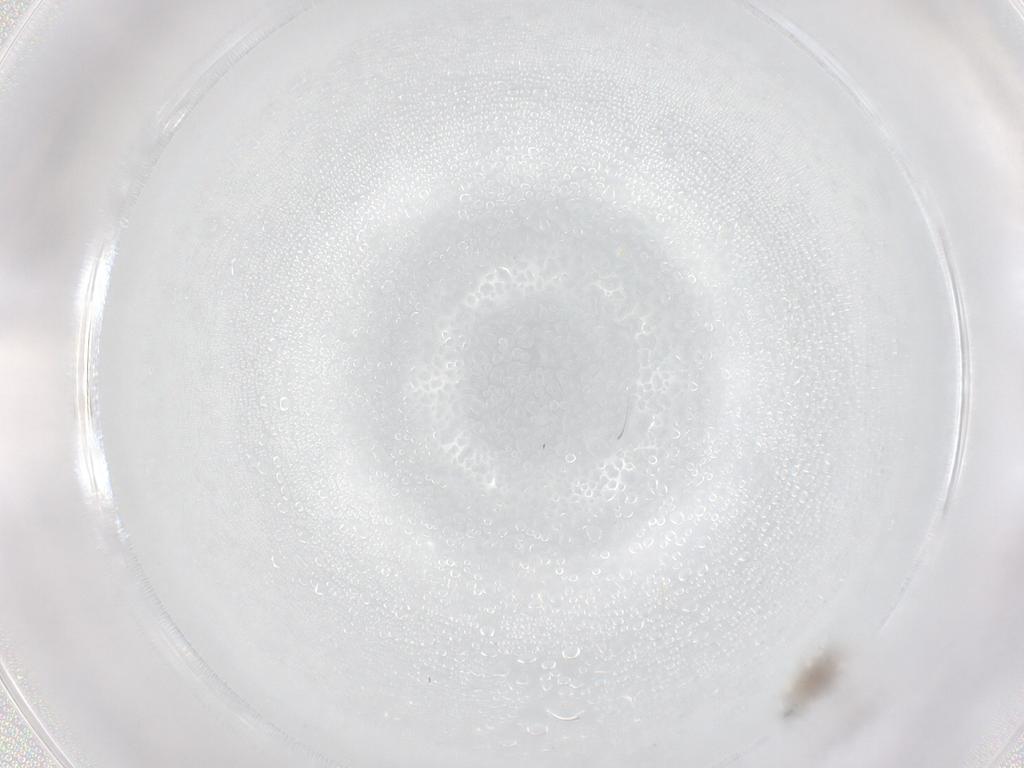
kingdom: Animalia
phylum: Arthropoda
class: Insecta
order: Diptera
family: Cecidomyiidae
